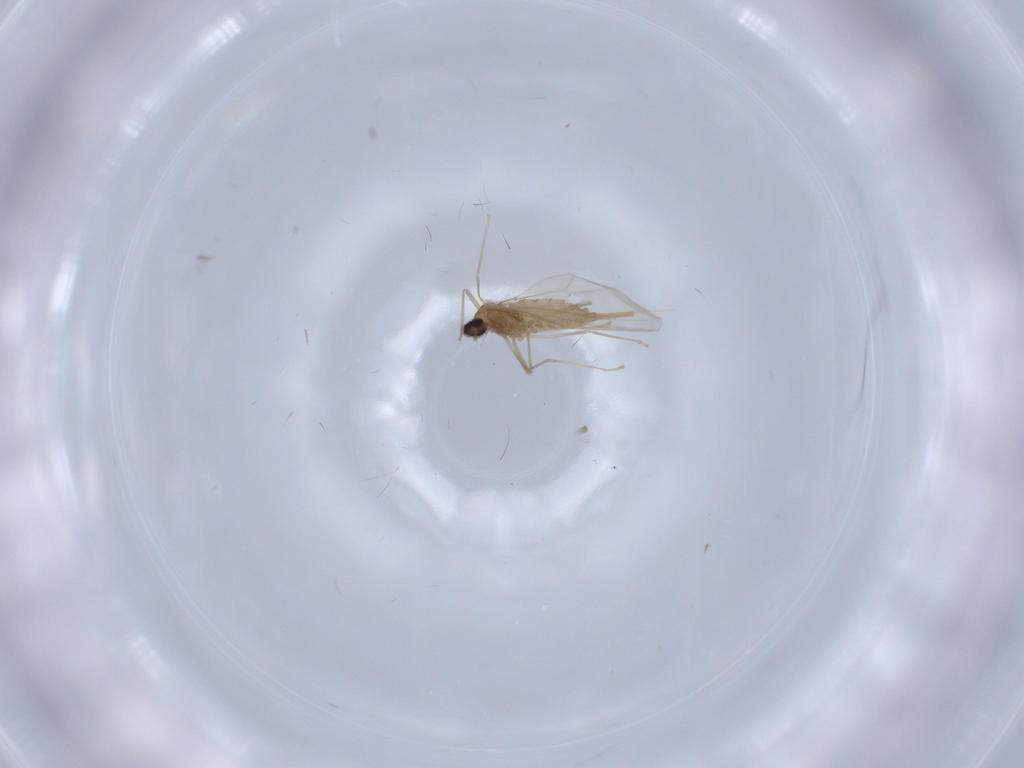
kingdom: Animalia
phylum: Arthropoda
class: Insecta
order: Diptera
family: Cecidomyiidae
